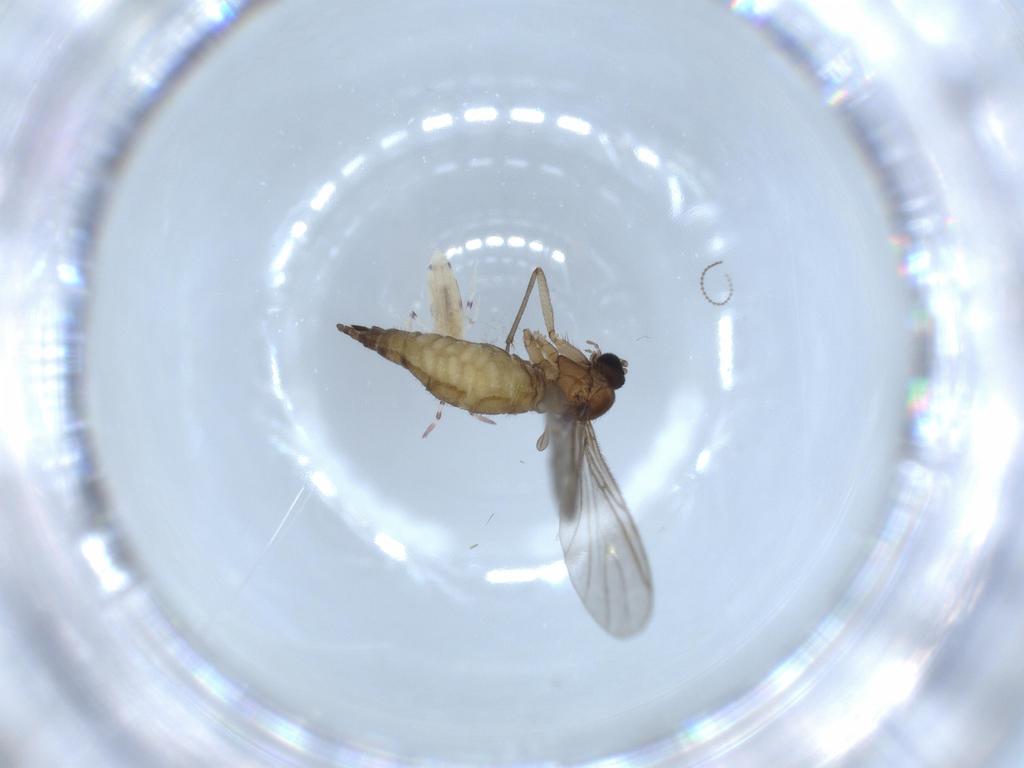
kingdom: Animalia
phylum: Arthropoda
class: Collembola
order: Entomobryomorpha
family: Entomobryidae
